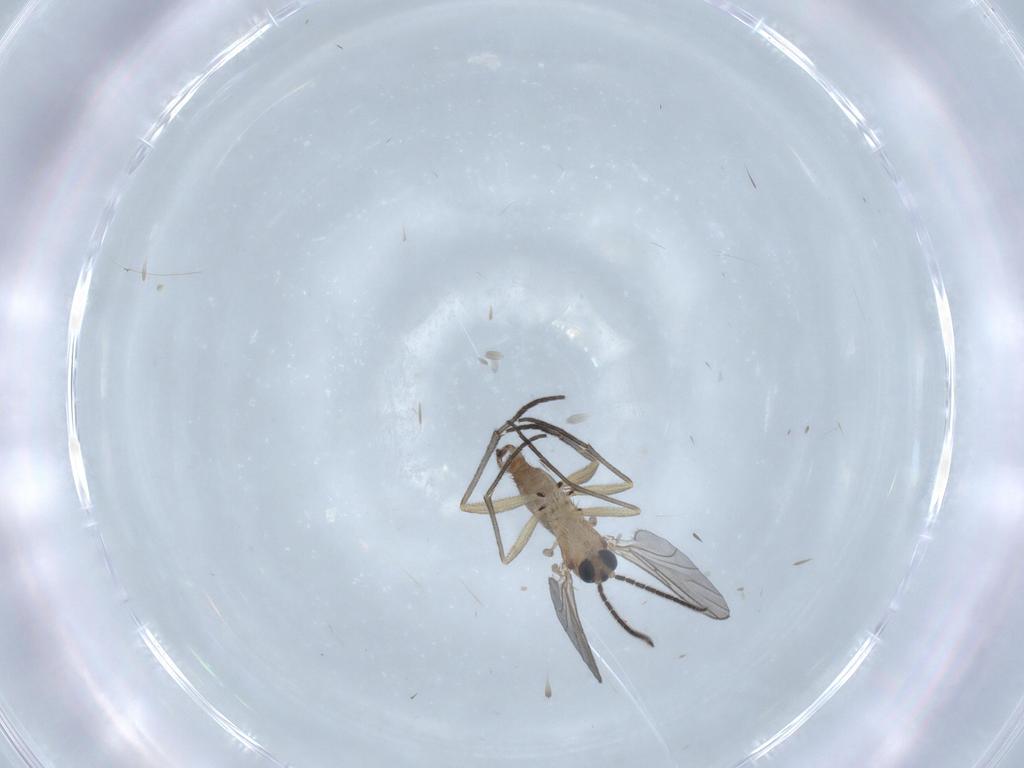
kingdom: Animalia
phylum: Arthropoda
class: Insecta
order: Diptera
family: Sciaridae
